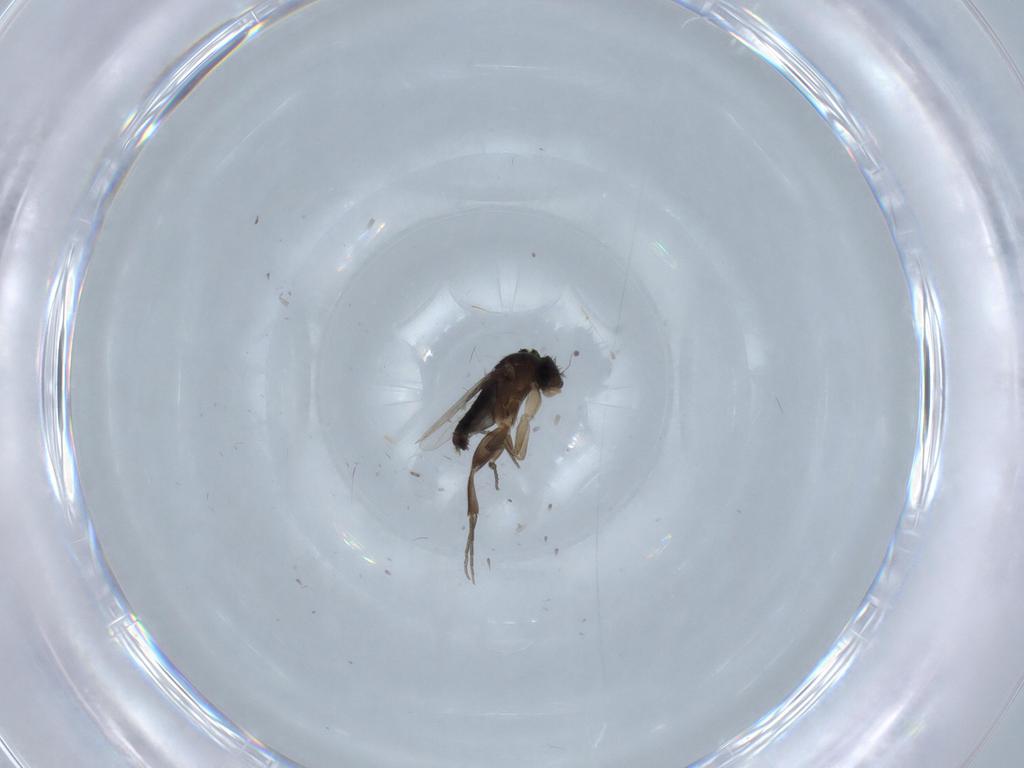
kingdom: Animalia
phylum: Arthropoda
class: Insecta
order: Diptera
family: Phoridae
